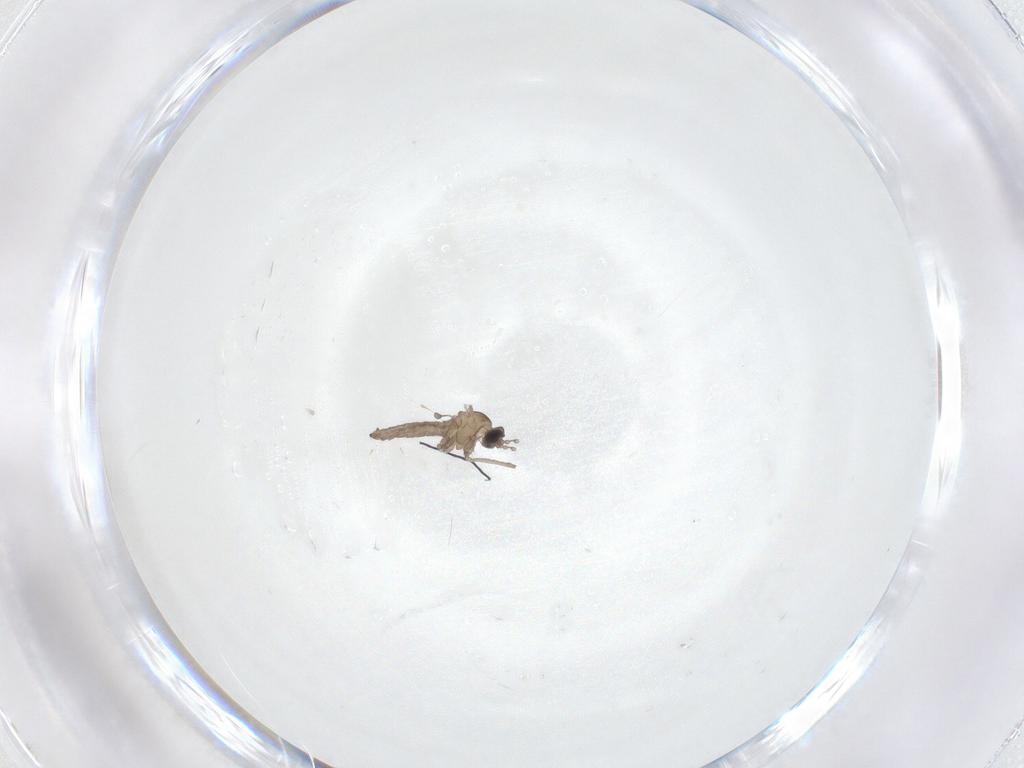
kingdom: Animalia
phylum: Arthropoda
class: Insecta
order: Diptera
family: Cecidomyiidae
